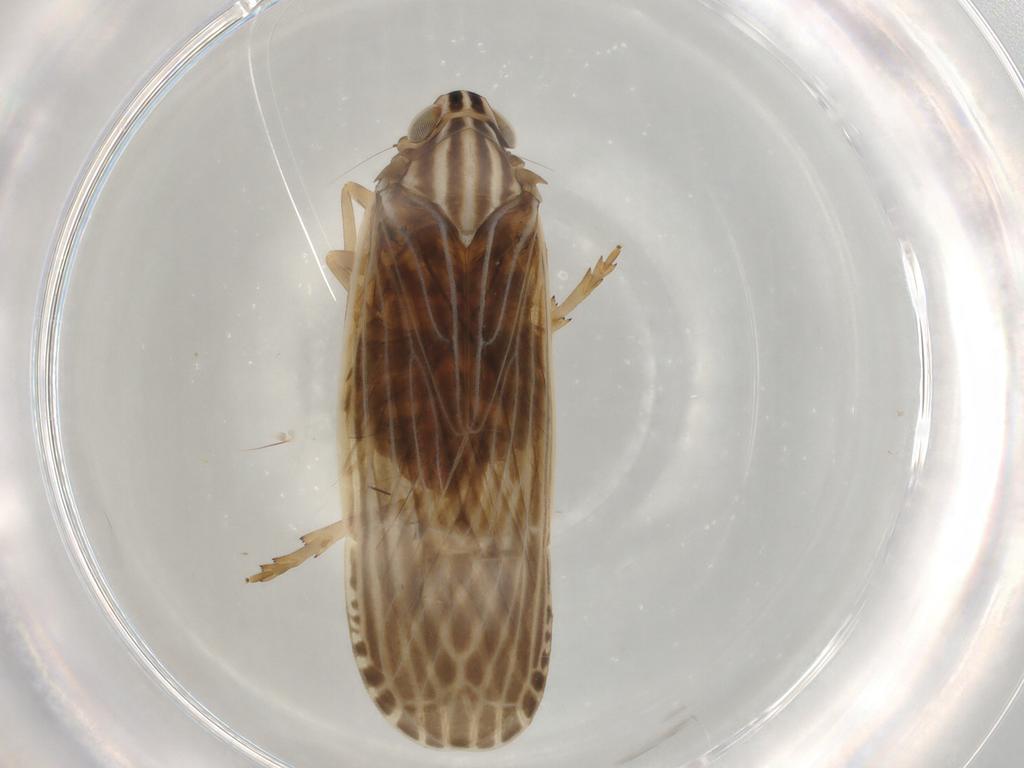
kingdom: Animalia
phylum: Arthropoda
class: Insecta
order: Hemiptera
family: Achilidae
